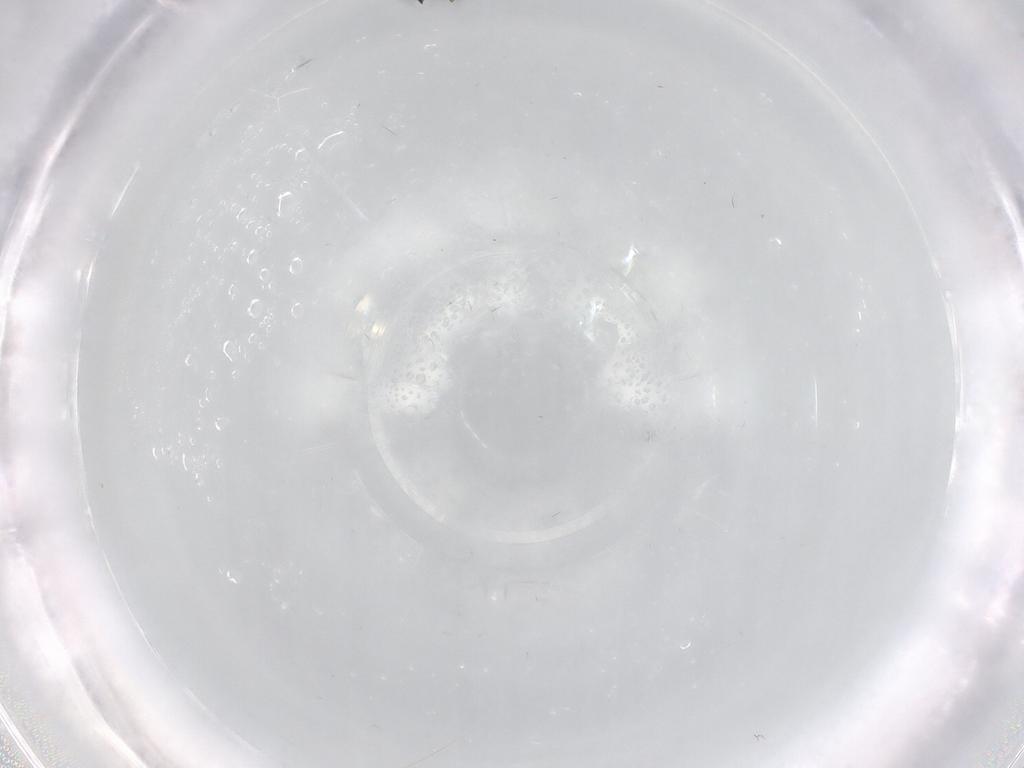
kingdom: Animalia
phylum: Arthropoda
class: Insecta
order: Hymenoptera
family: Platygastridae
